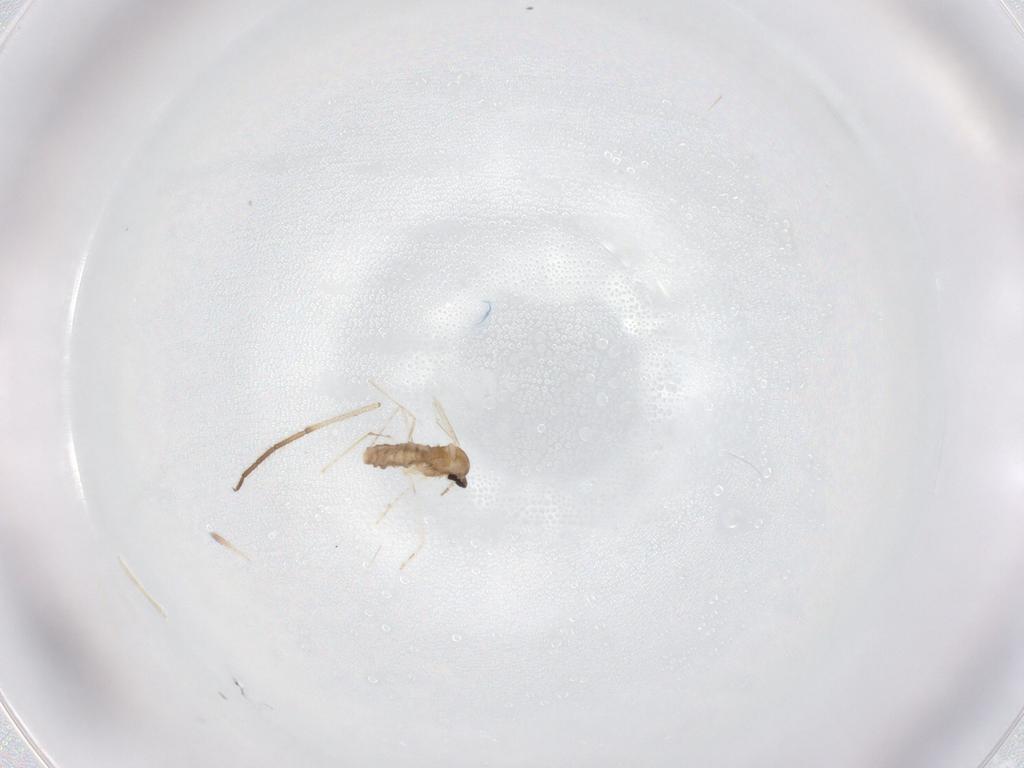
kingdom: Animalia
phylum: Arthropoda
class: Insecta
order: Diptera
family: Cecidomyiidae
